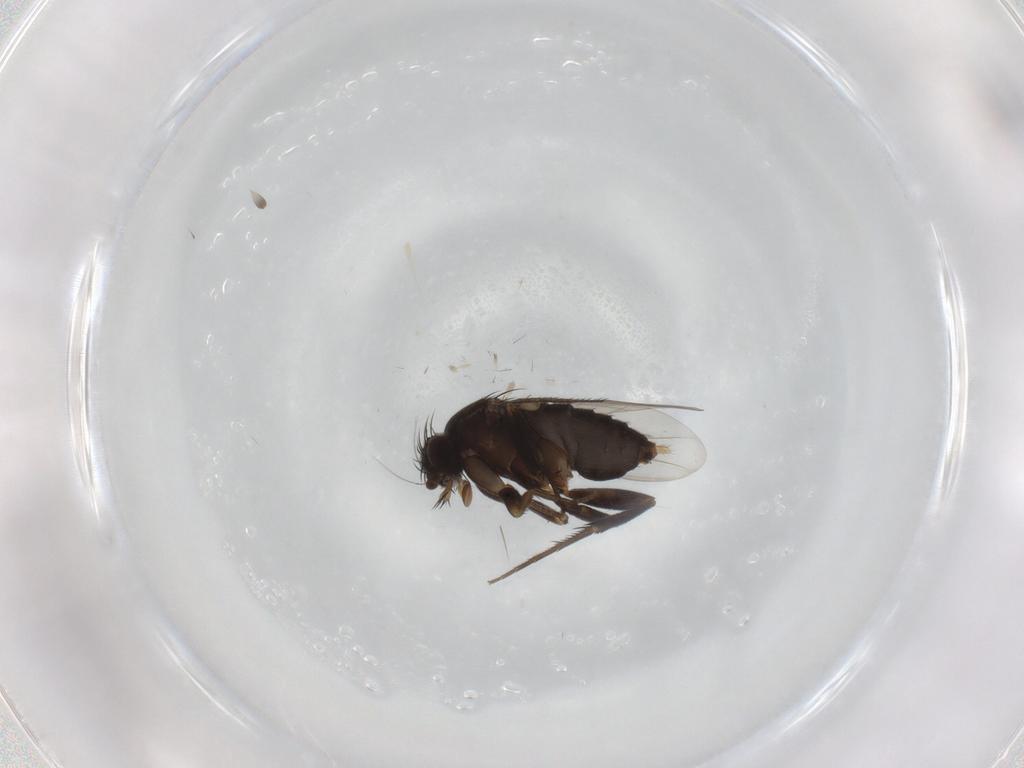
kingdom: Animalia
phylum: Arthropoda
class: Insecta
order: Diptera
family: Phoridae
